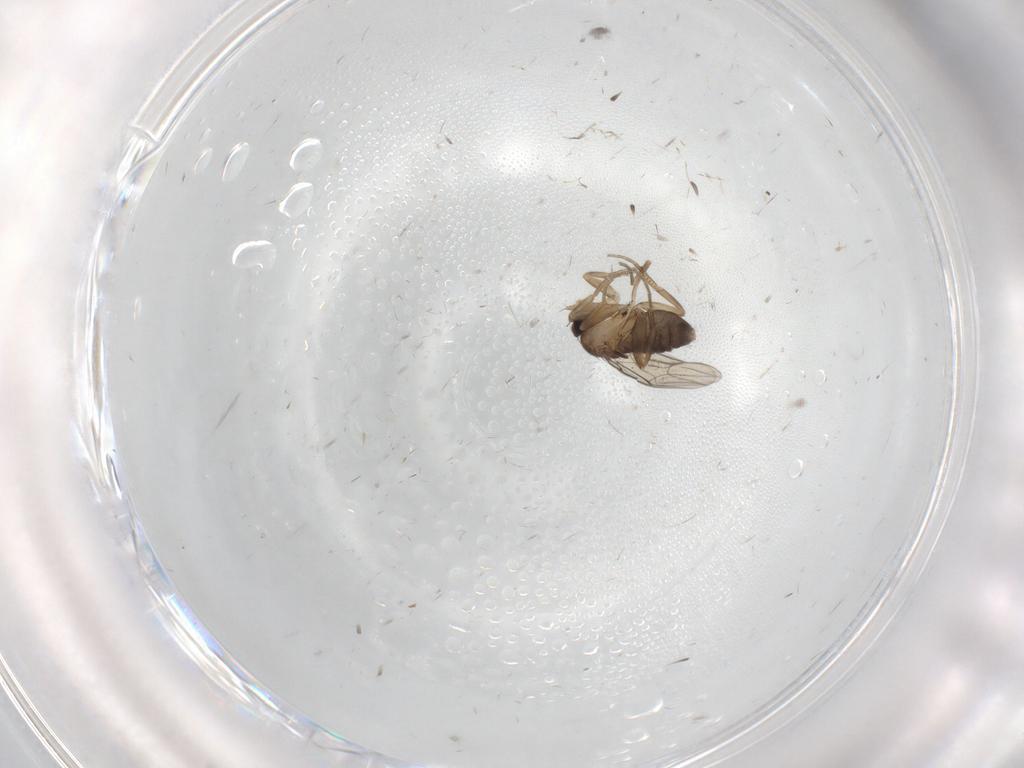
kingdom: Animalia
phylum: Arthropoda
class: Insecta
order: Diptera
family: Phoridae
